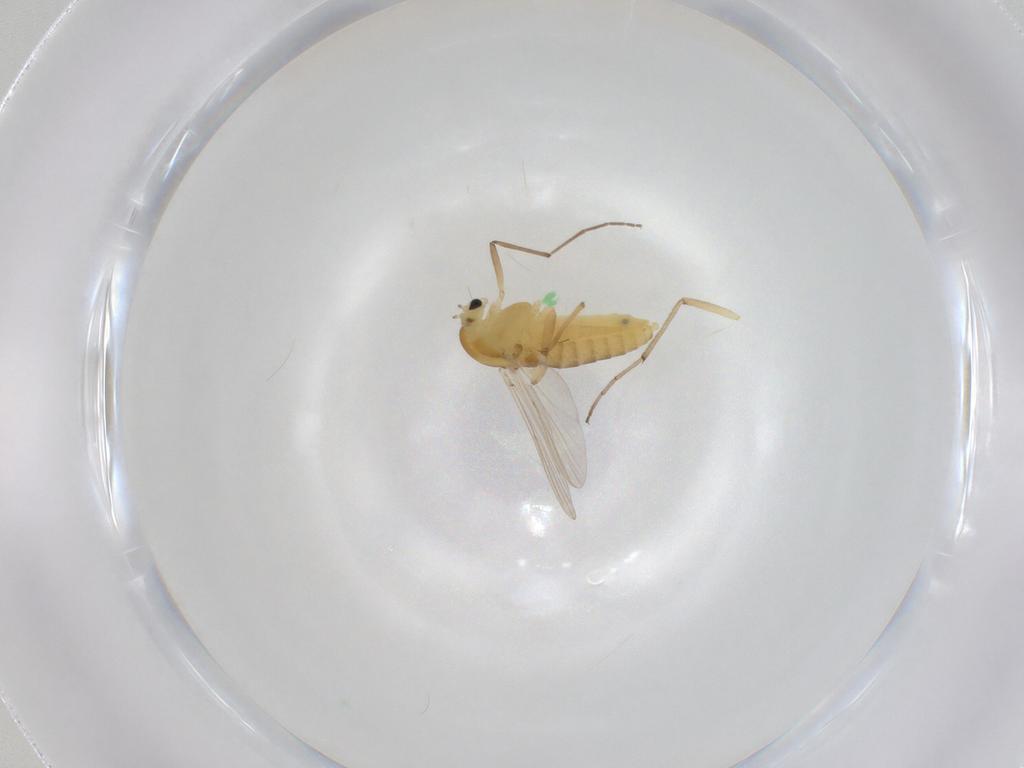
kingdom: Animalia
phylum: Arthropoda
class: Insecta
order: Diptera
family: Chironomidae
